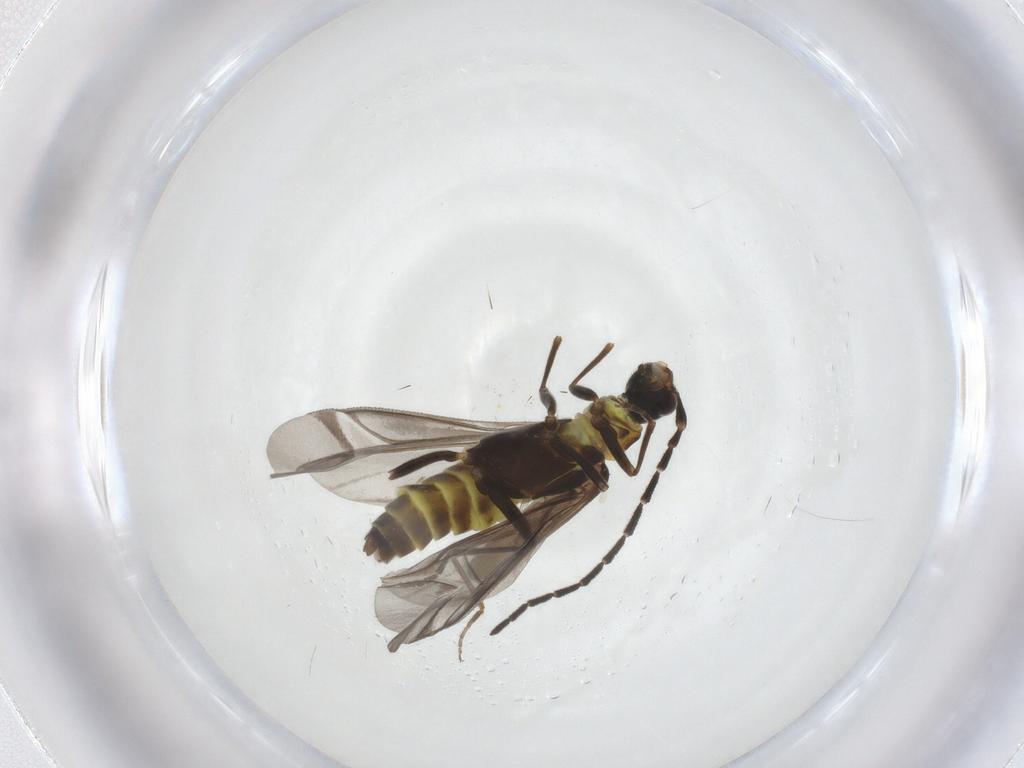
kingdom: Animalia
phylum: Arthropoda
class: Insecta
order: Coleoptera
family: Cantharidae
